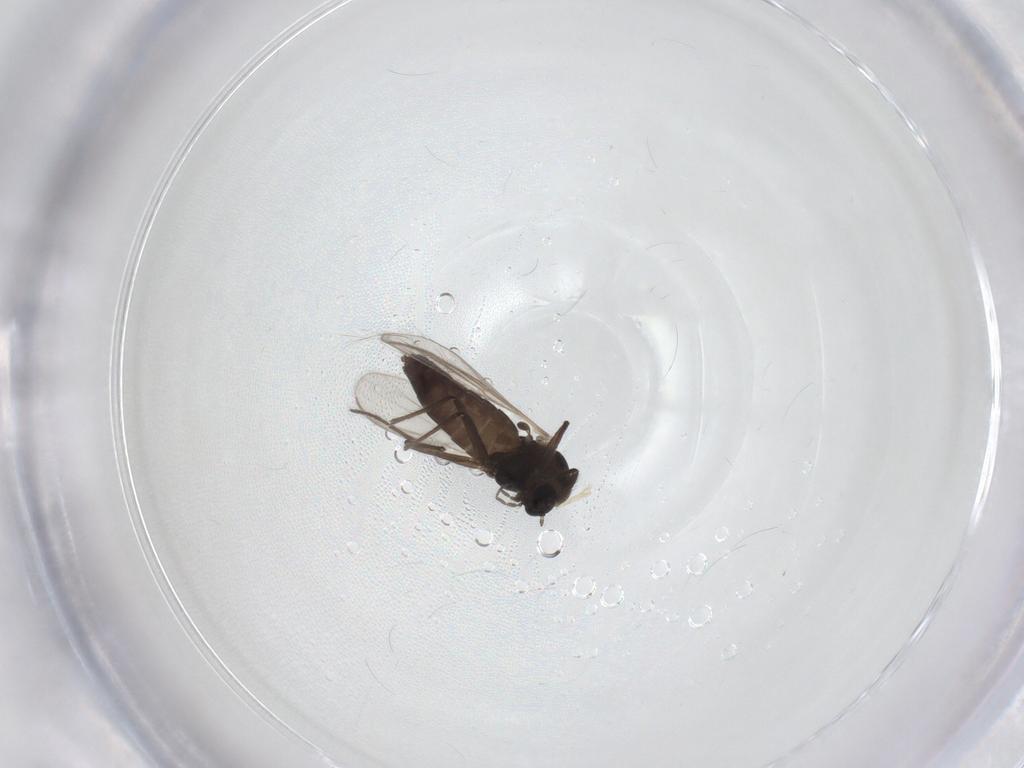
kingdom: Animalia
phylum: Arthropoda
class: Insecta
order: Diptera
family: Chironomidae
